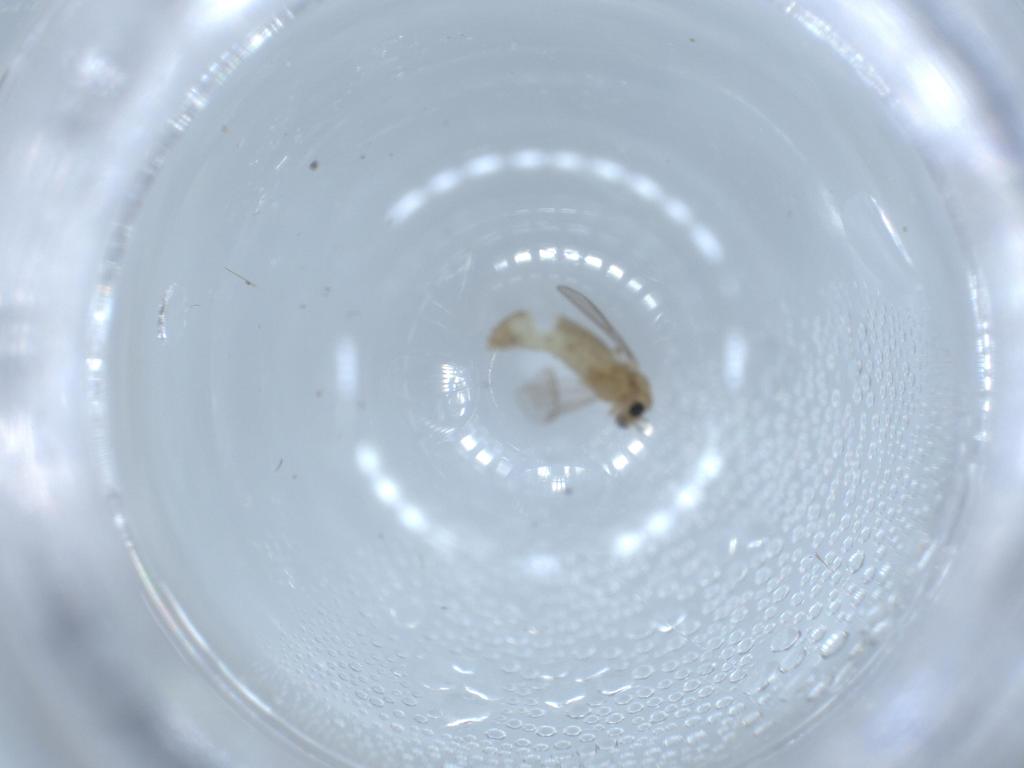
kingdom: Animalia
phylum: Arthropoda
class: Insecta
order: Diptera
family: Chironomidae
